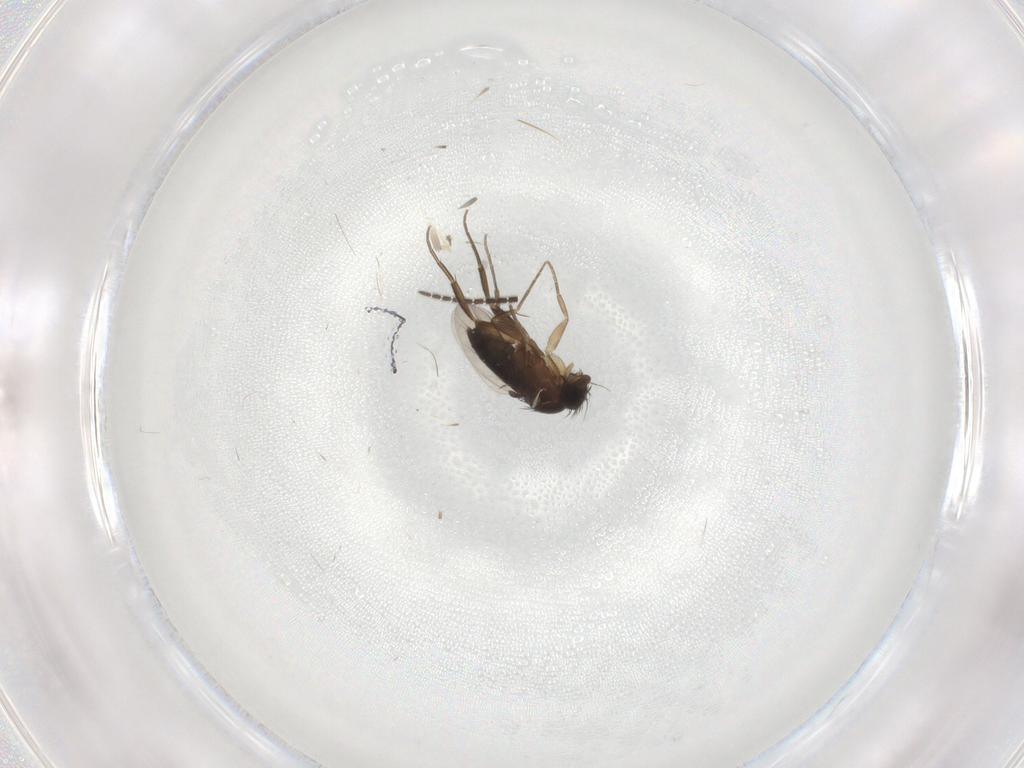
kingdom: Animalia
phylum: Arthropoda
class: Insecta
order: Diptera
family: Phoridae
